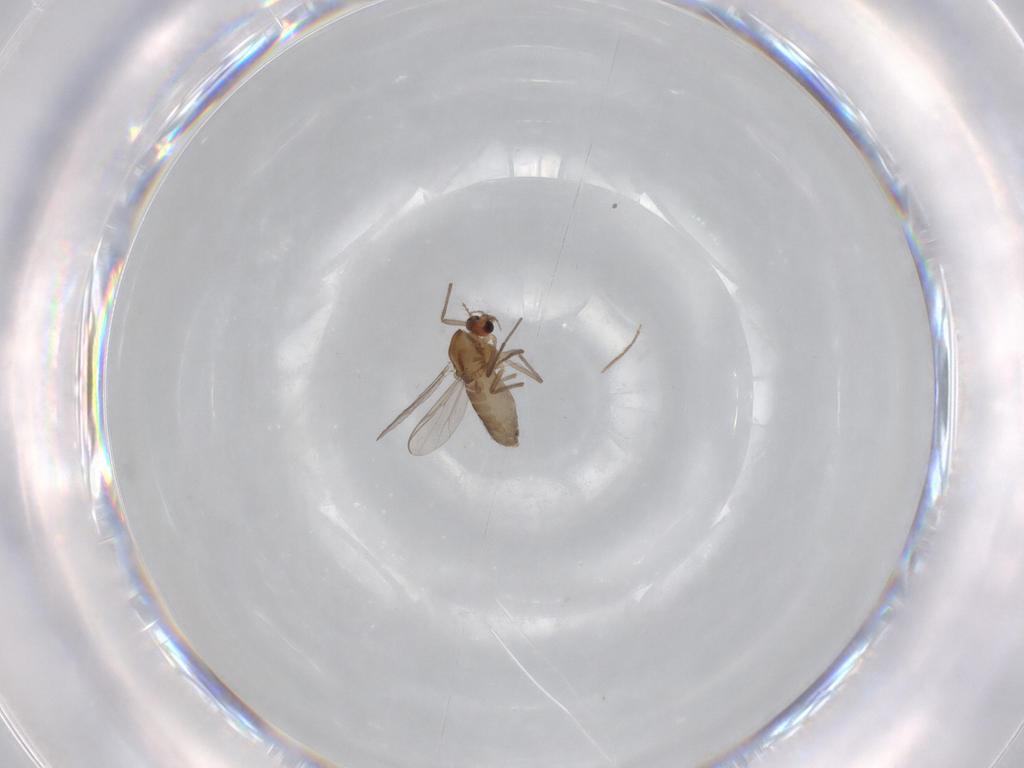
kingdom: Animalia
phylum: Arthropoda
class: Insecta
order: Diptera
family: Chironomidae
